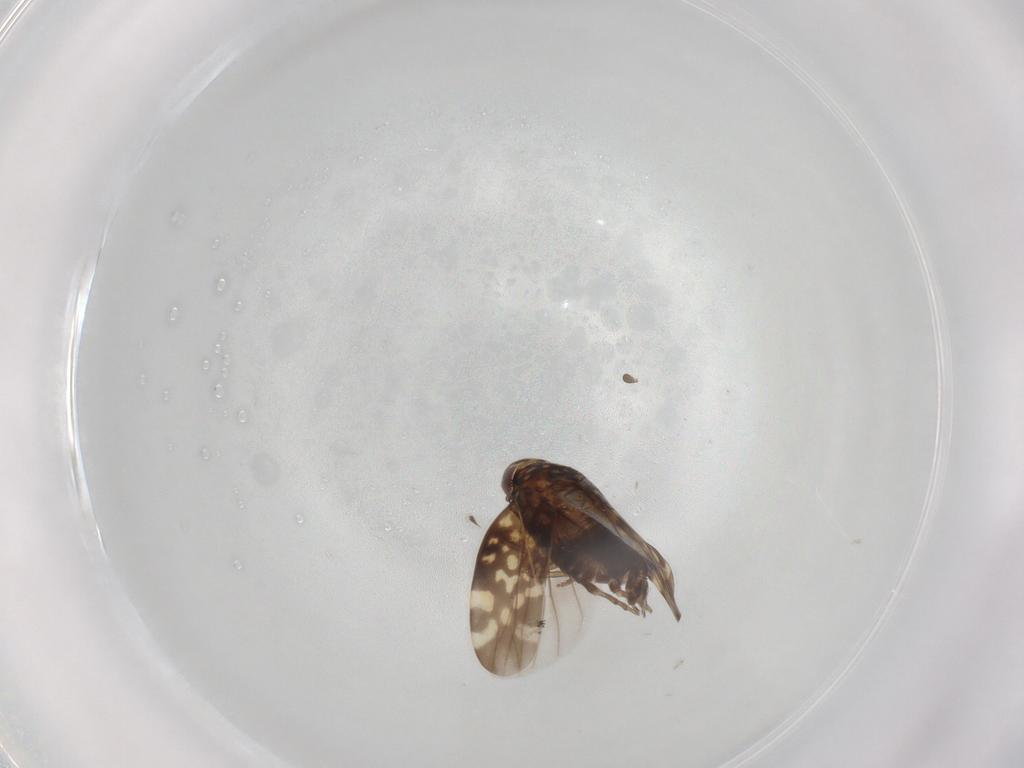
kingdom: Animalia
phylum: Arthropoda
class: Insecta
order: Hemiptera
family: Cicadellidae
